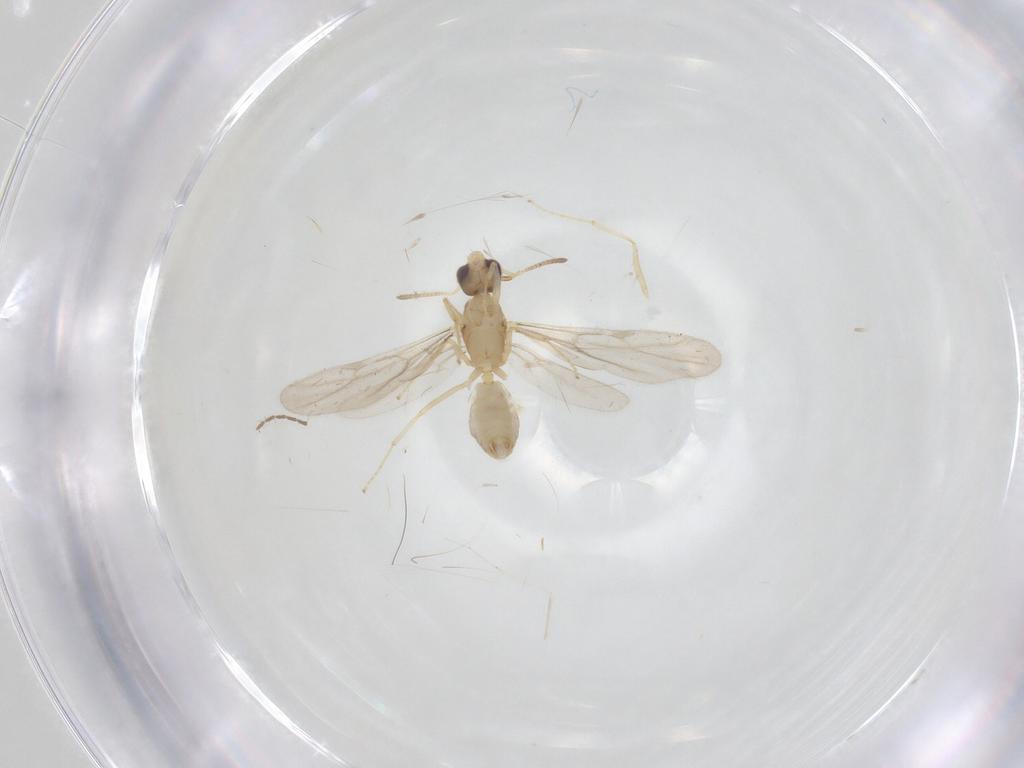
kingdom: Animalia
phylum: Arthropoda
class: Insecta
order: Hymenoptera
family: Formicidae
